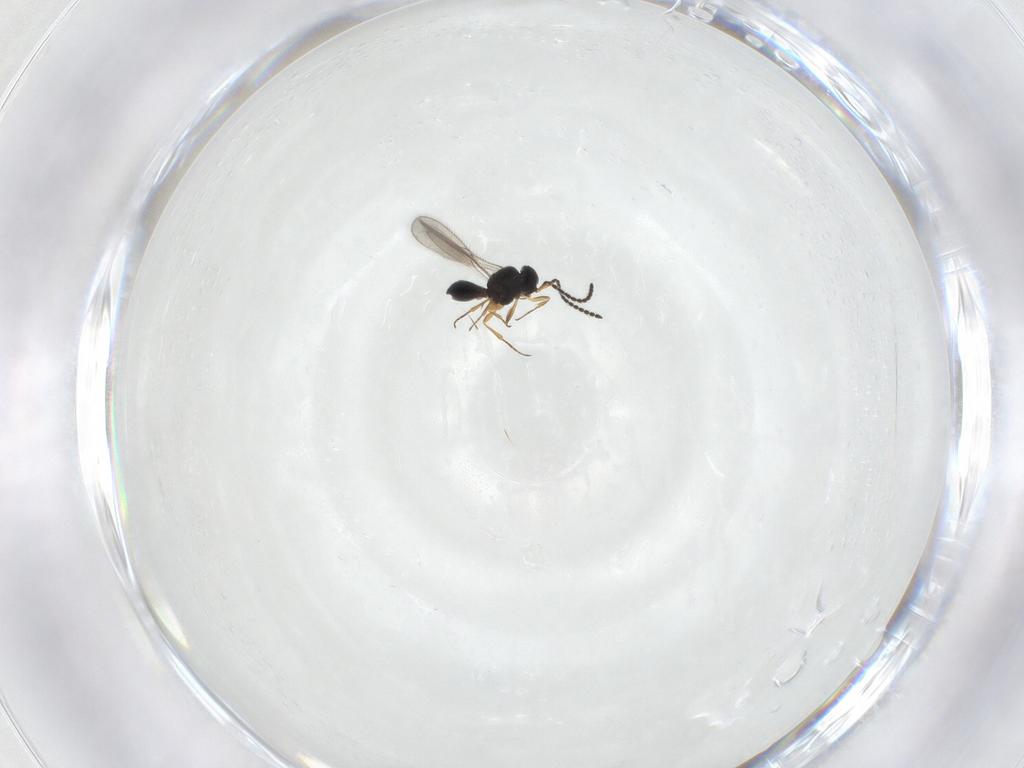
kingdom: Animalia
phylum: Arthropoda
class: Insecta
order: Hymenoptera
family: Scelionidae
